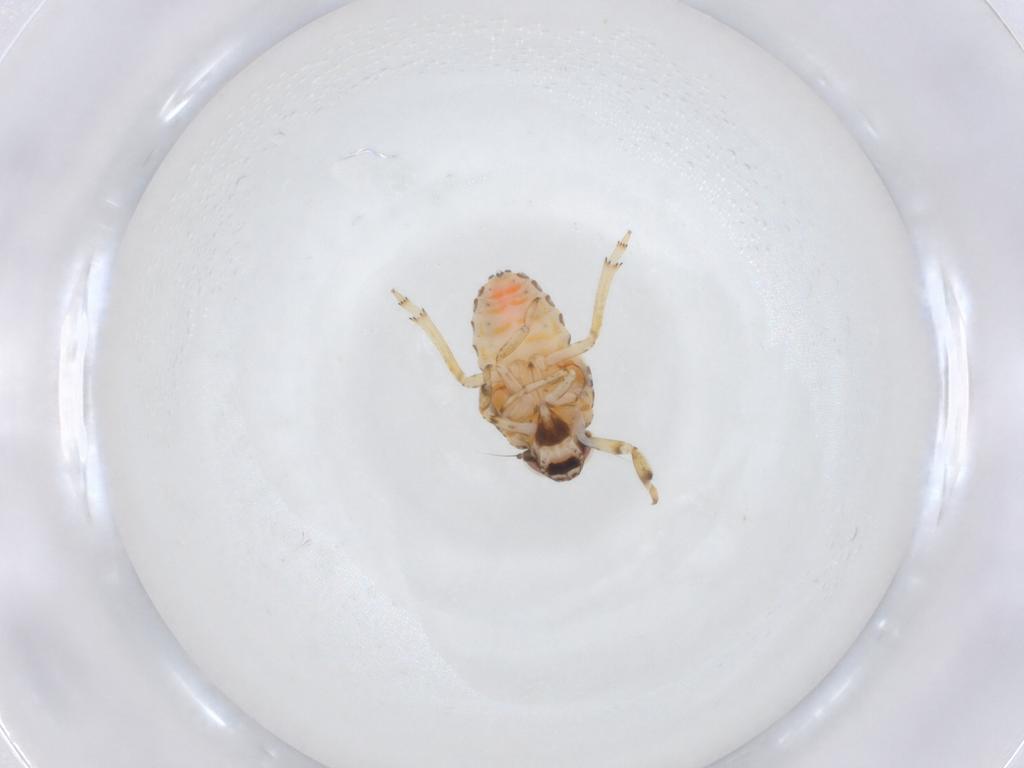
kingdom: Animalia
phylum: Arthropoda
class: Insecta
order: Hemiptera
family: Issidae
